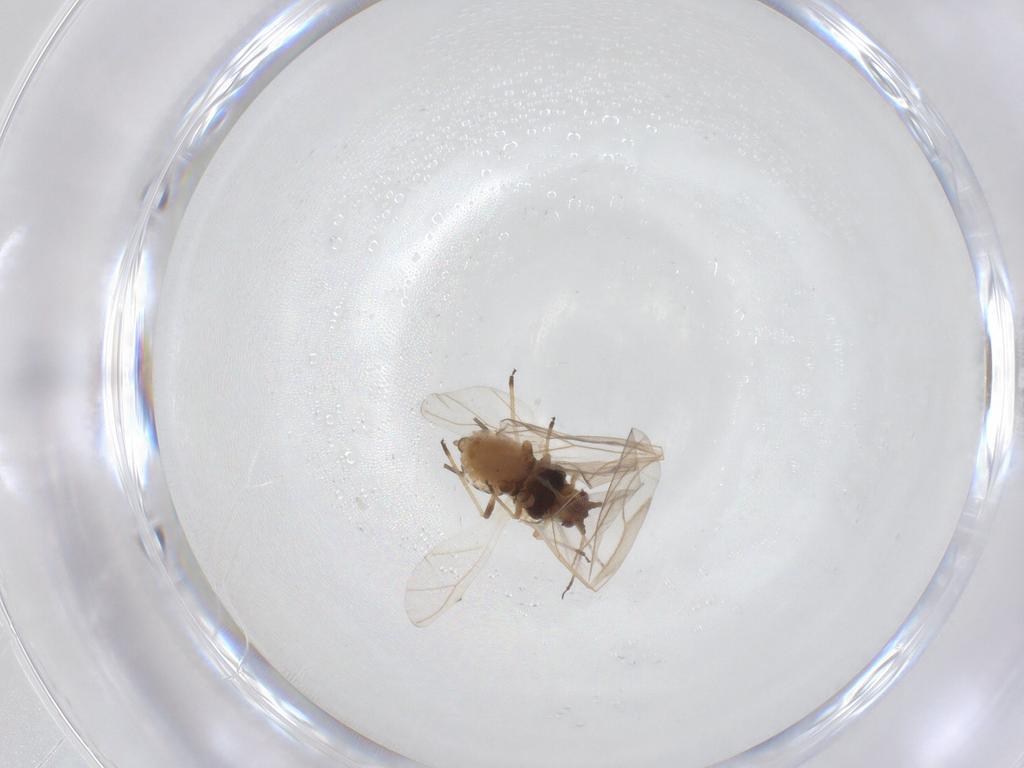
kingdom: Animalia
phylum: Arthropoda
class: Insecta
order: Hemiptera
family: Aphididae
